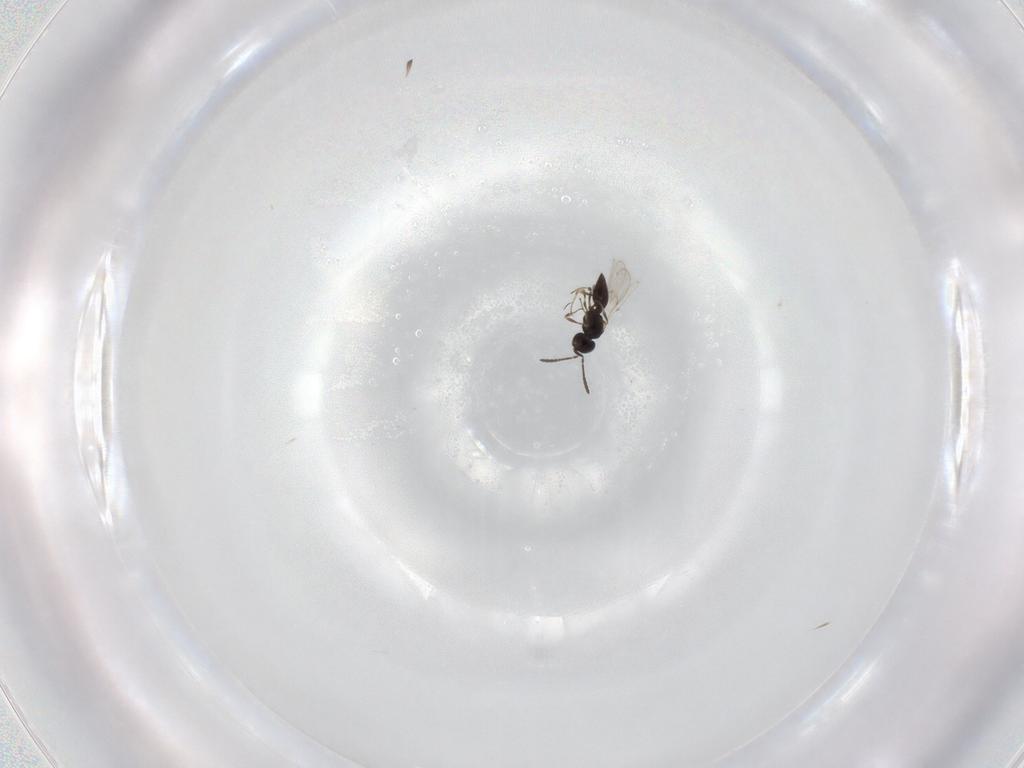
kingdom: Animalia
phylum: Arthropoda
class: Insecta
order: Hymenoptera
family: Scelionidae
